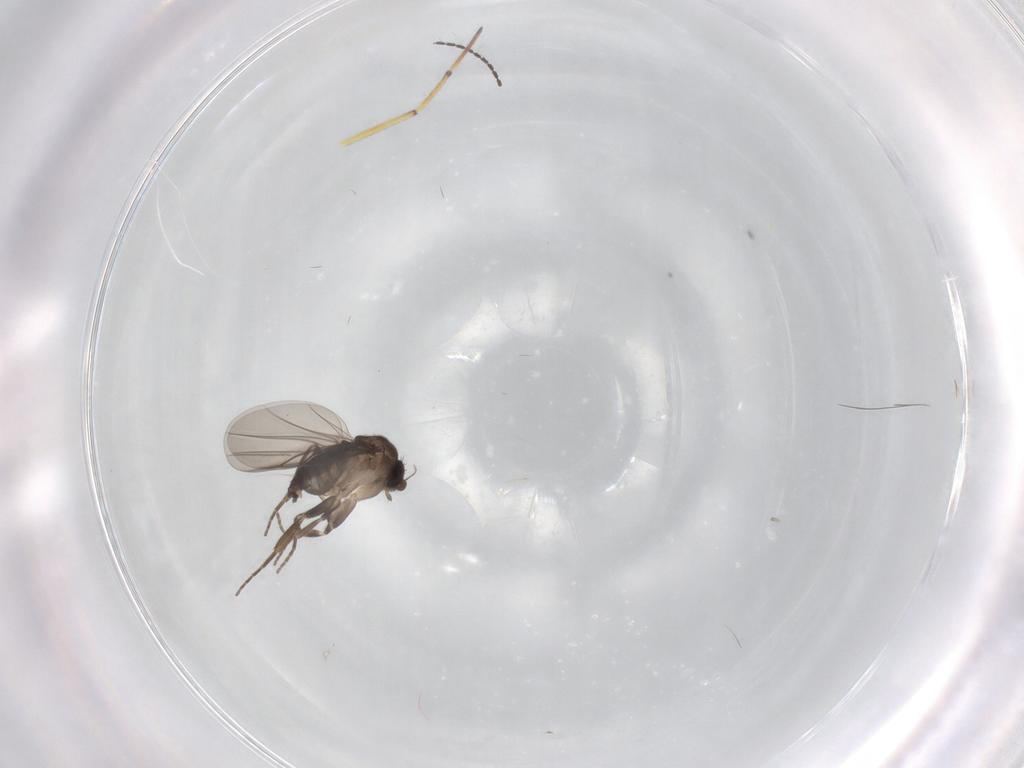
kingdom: Animalia
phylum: Arthropoda
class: Insecta
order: Diptera
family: Cecidomyiidae
